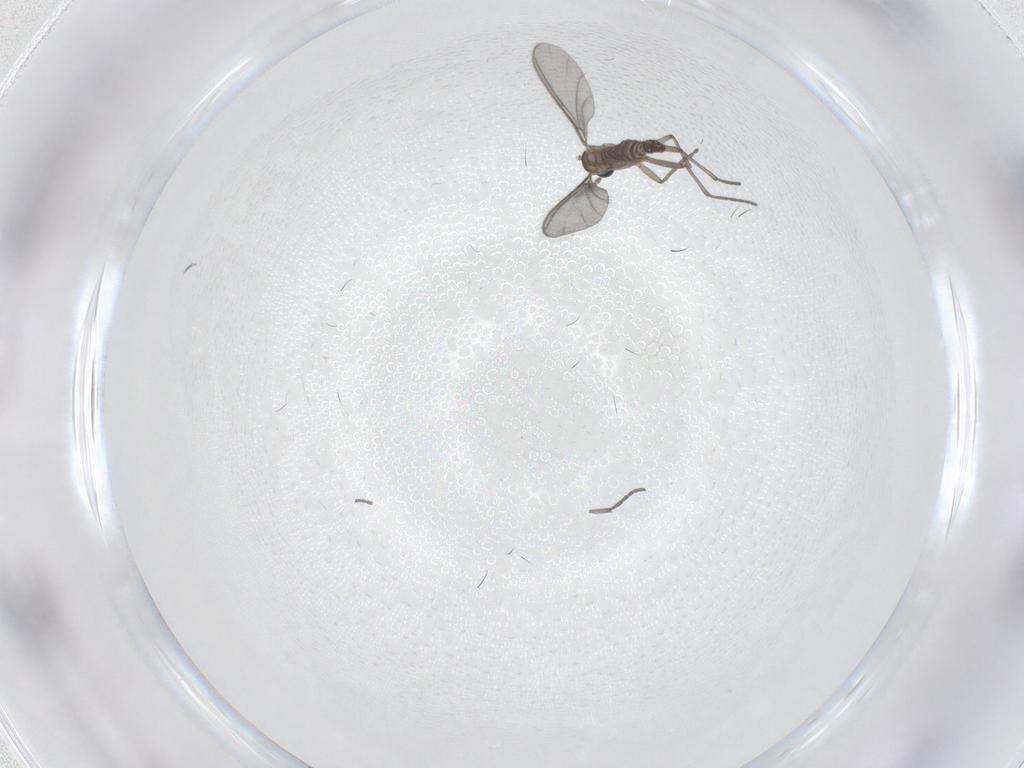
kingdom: Animalia
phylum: Arthropoda
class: Insecta
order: Diptera
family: Sciaridae
